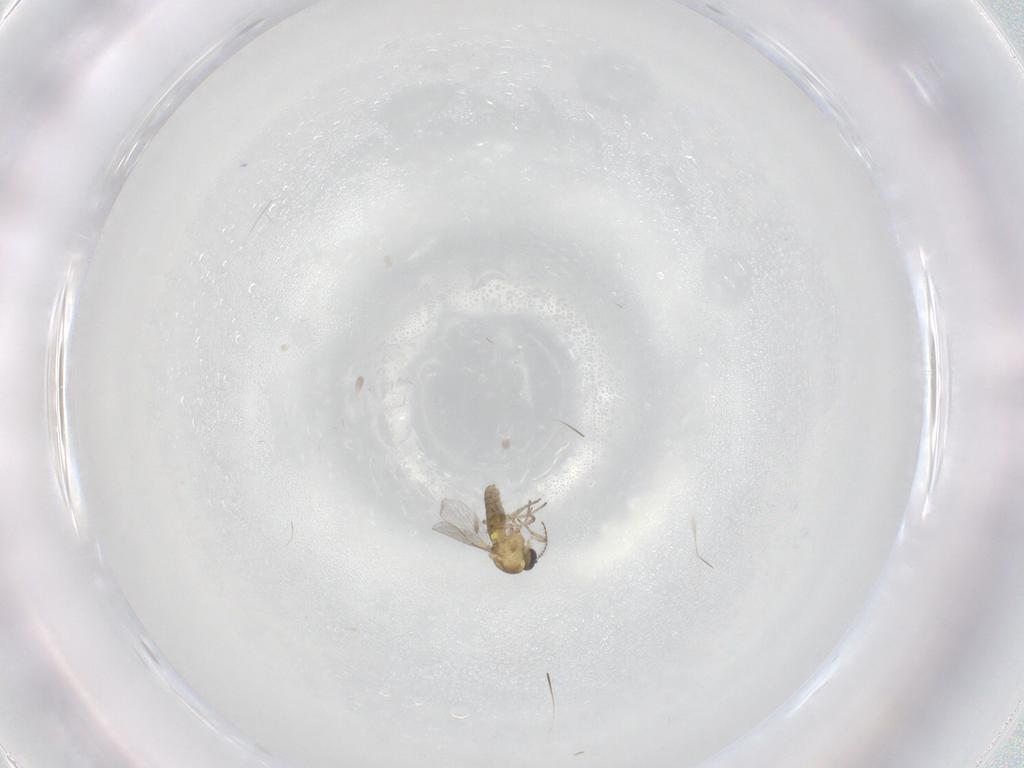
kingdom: Animalia
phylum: Arthropoda
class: Insecta
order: Diptera
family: Ceratopogonidae
